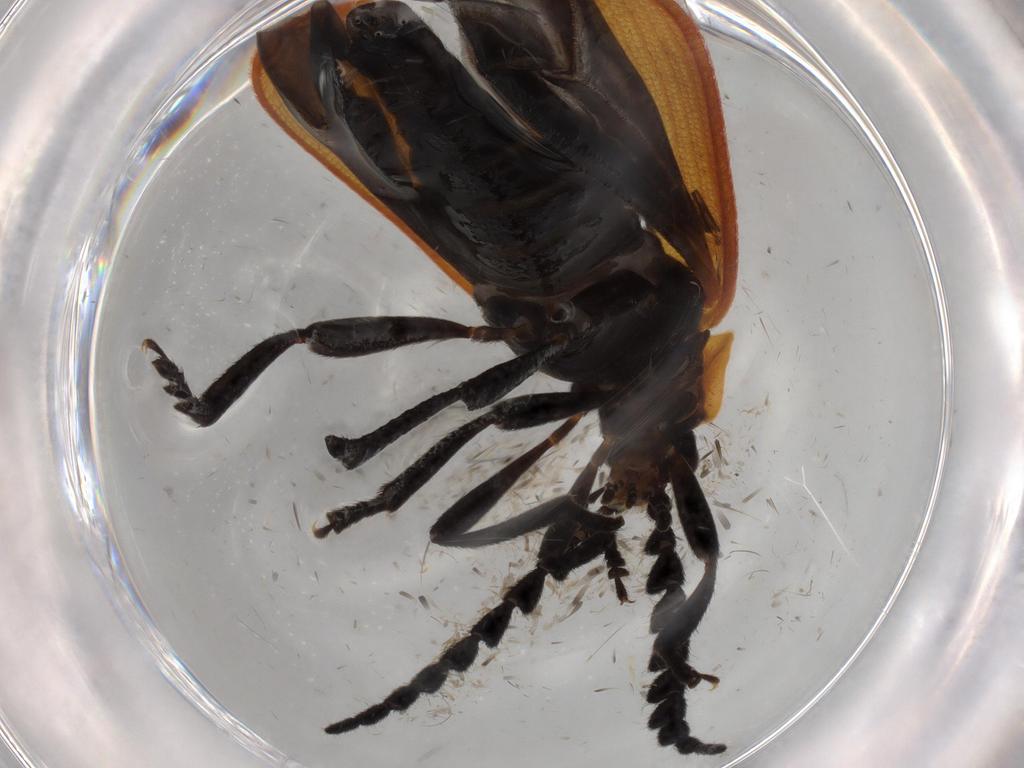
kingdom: Animalia
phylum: Arthropoda
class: Insecta
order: Coleoptera
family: Lycidae
